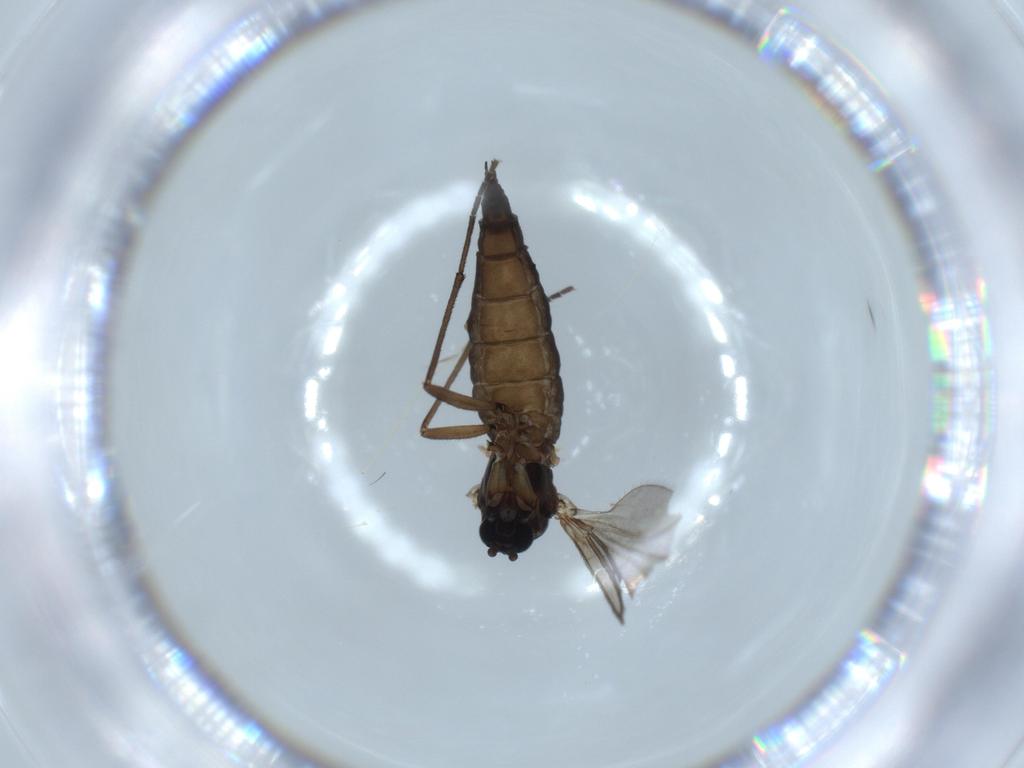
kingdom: Animalia
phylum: Arthropoda
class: Insecta
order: Diptera
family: Sciaridae
